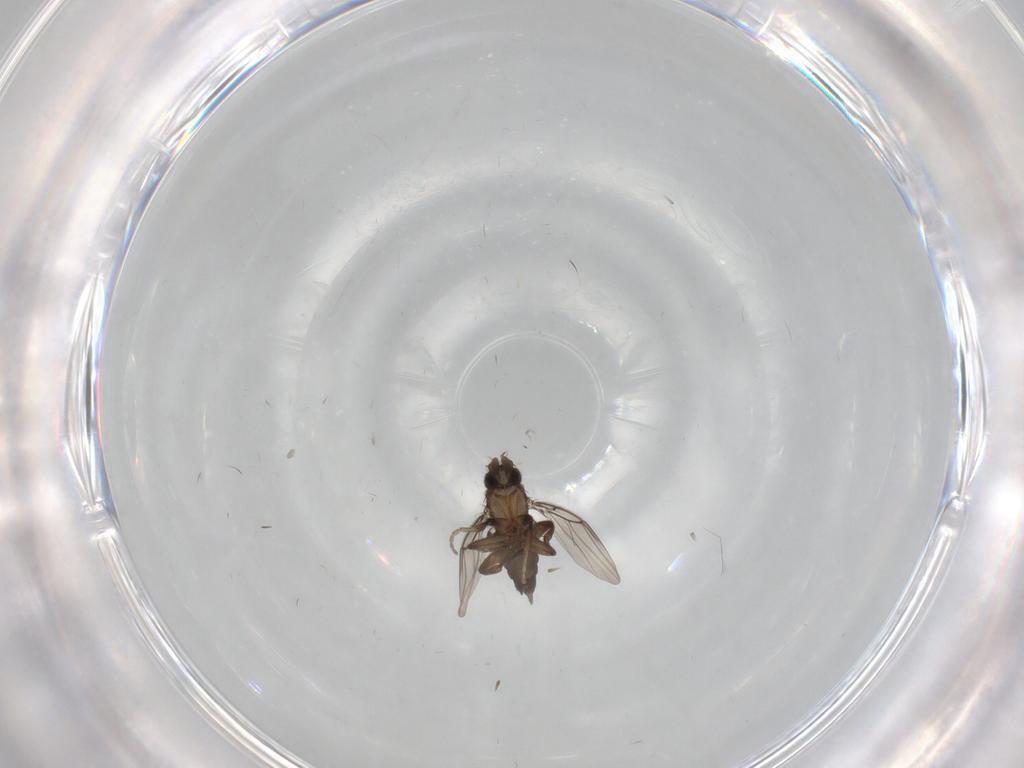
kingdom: Animalia
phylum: Arthropoda
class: Insecta
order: Diptera
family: Phoridae
